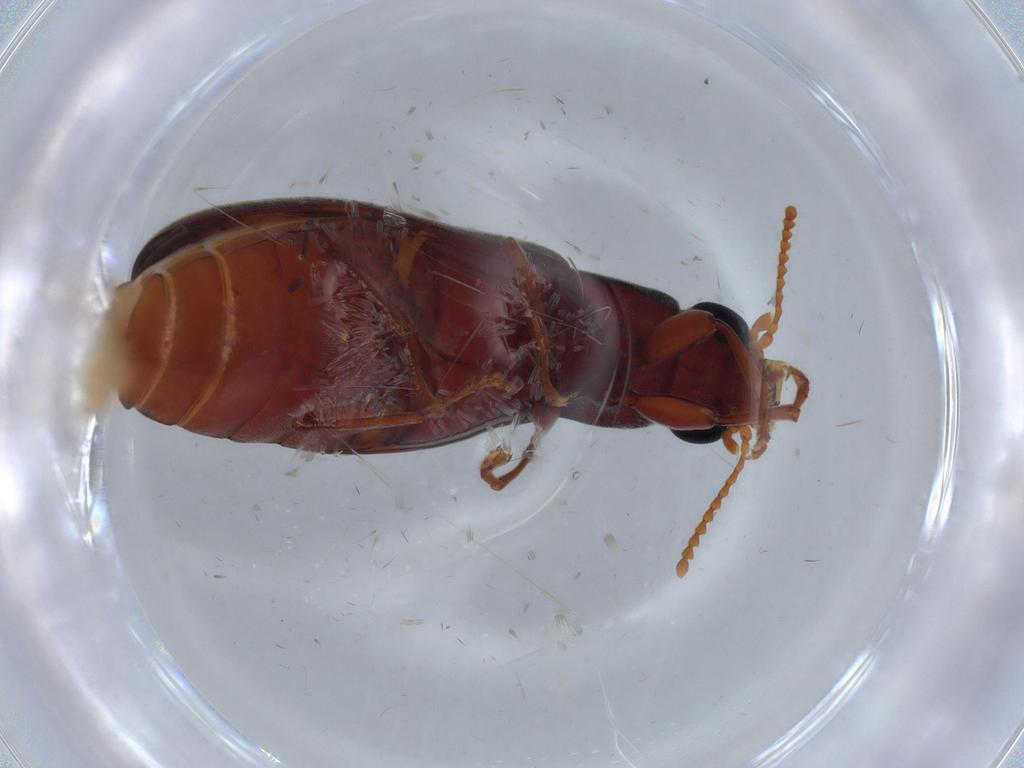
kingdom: Animalia
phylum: Arthropoda
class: Insecta
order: Coleoptera
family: Mycteridae
